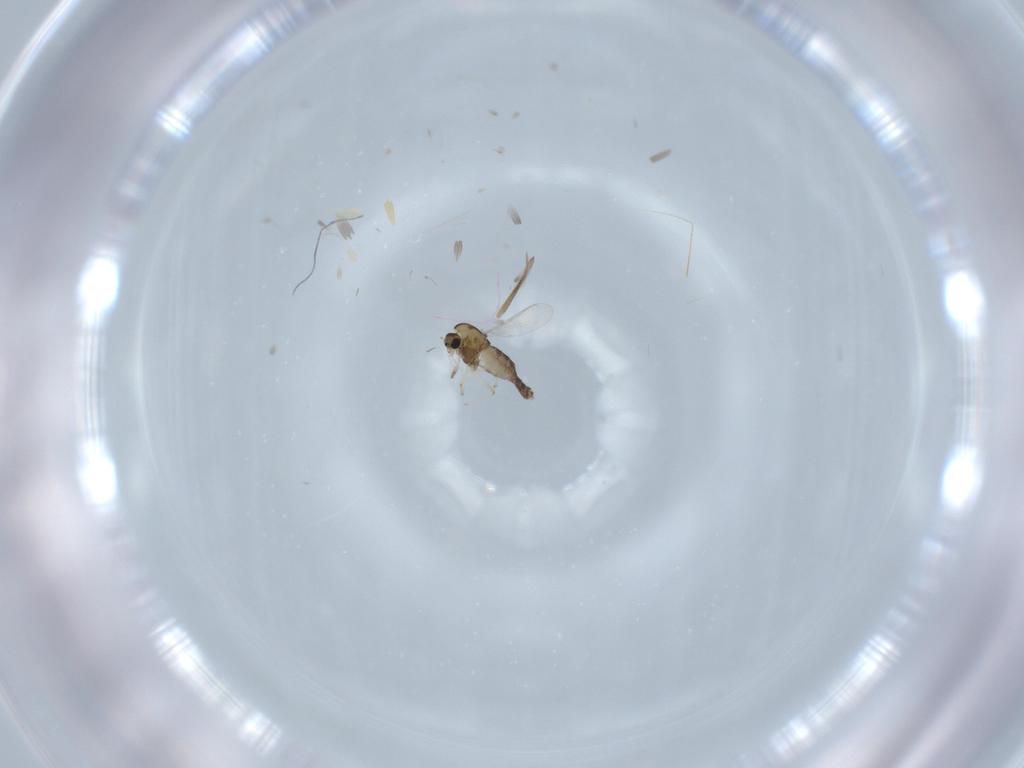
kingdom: Animalia
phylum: Arthropoda
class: Insecta
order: Diptera
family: Chironomidae
